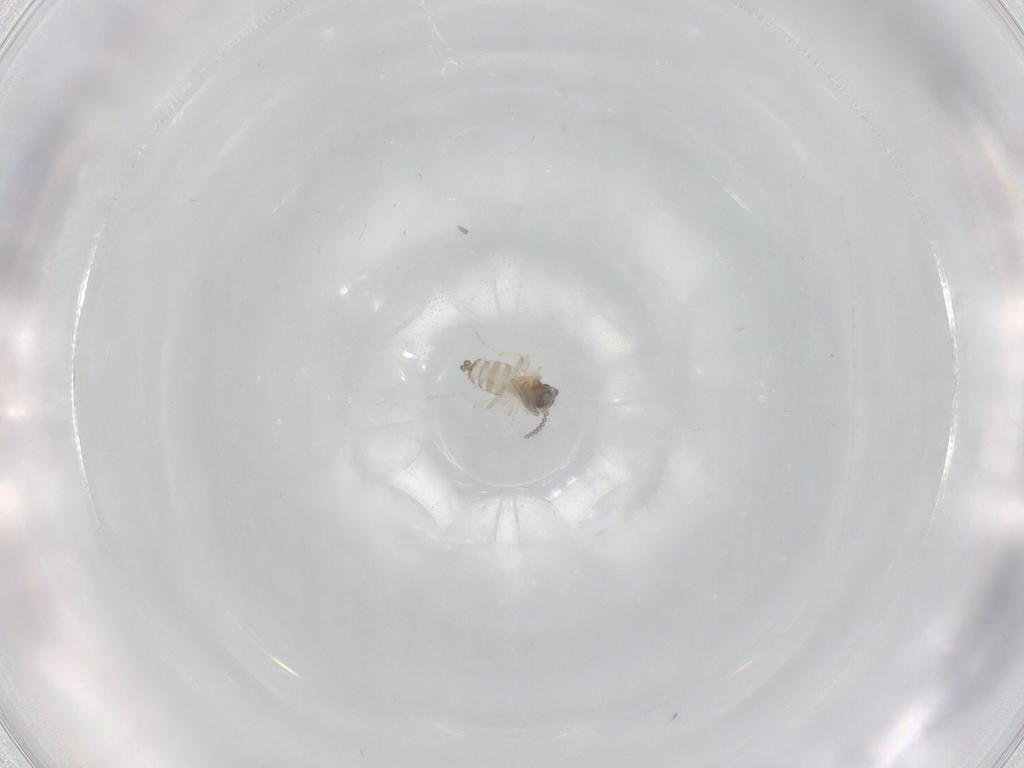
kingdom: Animalia
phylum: Arthropoda
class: Insecta
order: Diptera
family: Cecidomyiidae
